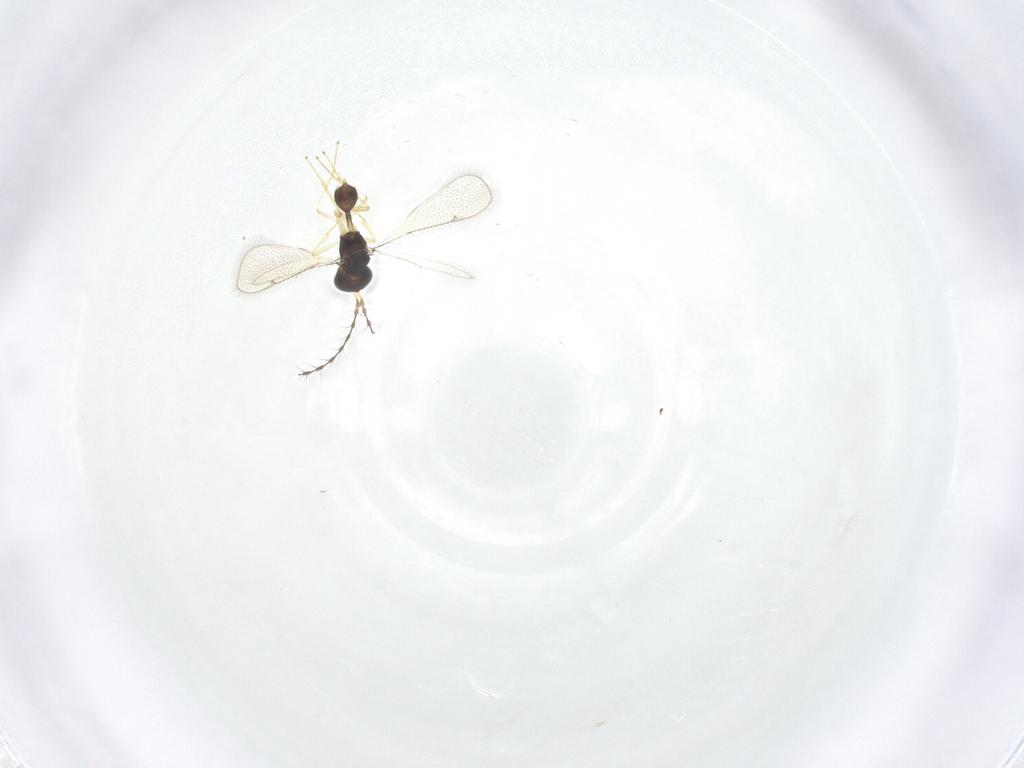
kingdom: Animalia
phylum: Arthropoda
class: Insecta
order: Hymenoptera
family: Diparidae
